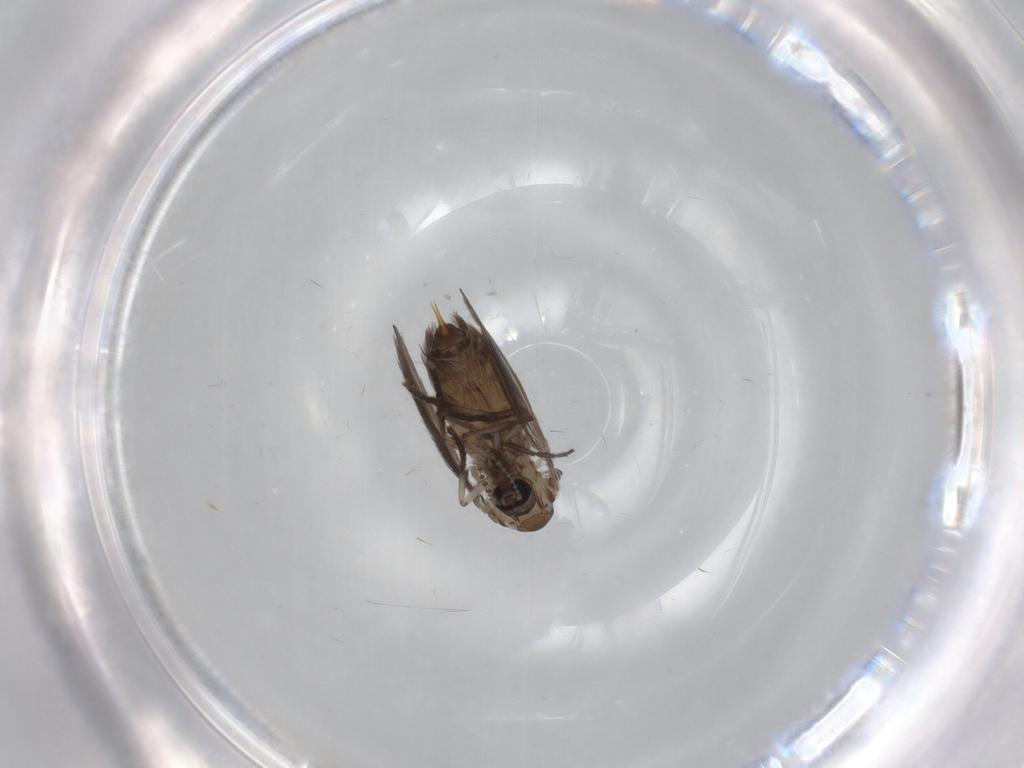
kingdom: Animalia
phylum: Arthropoda
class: Insecta
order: Diptera
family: Psychodidae
